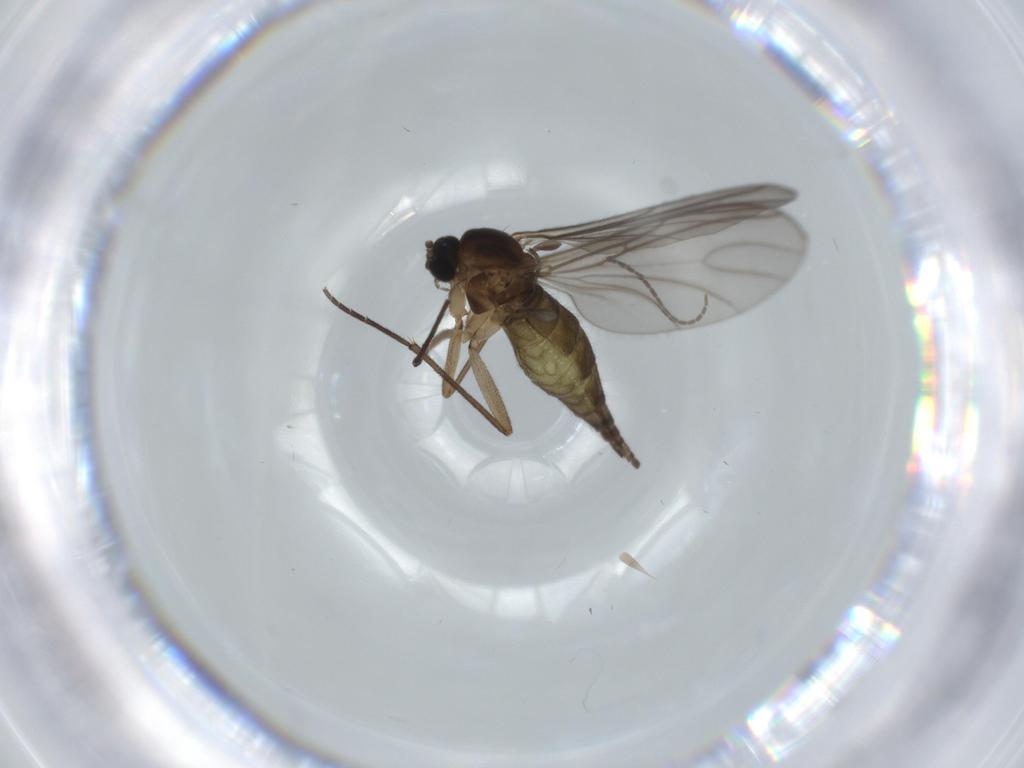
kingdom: Animalia
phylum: Arthropoda
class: Insecta
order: Diptera
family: Sciaridae
